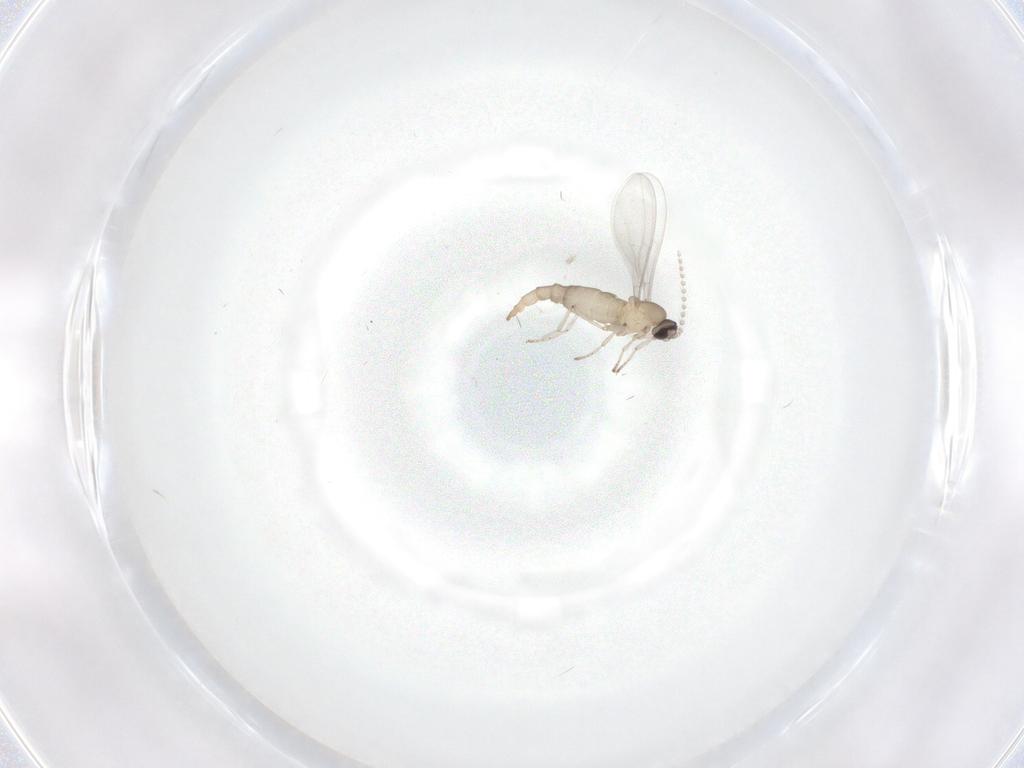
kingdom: Animalia
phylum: Arthropoda
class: Insecta
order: Diptera
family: Cecidomyiidae
